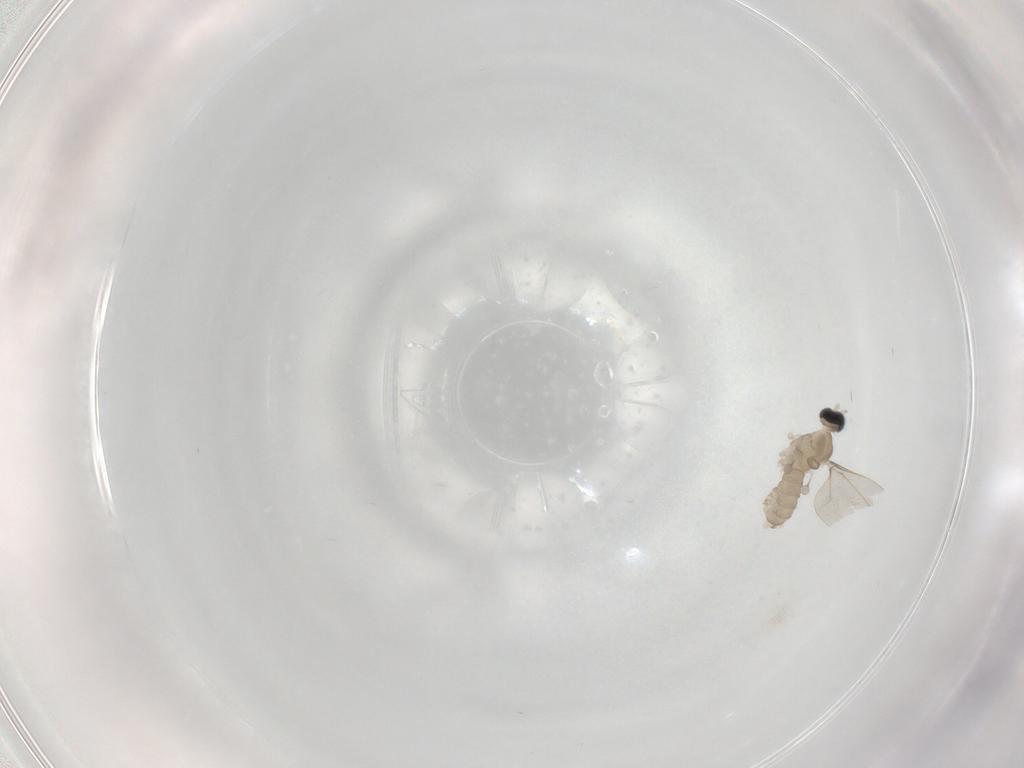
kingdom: Animalia
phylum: Arthropoda
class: Insecta
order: Diptera
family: Cecidomyiidae
